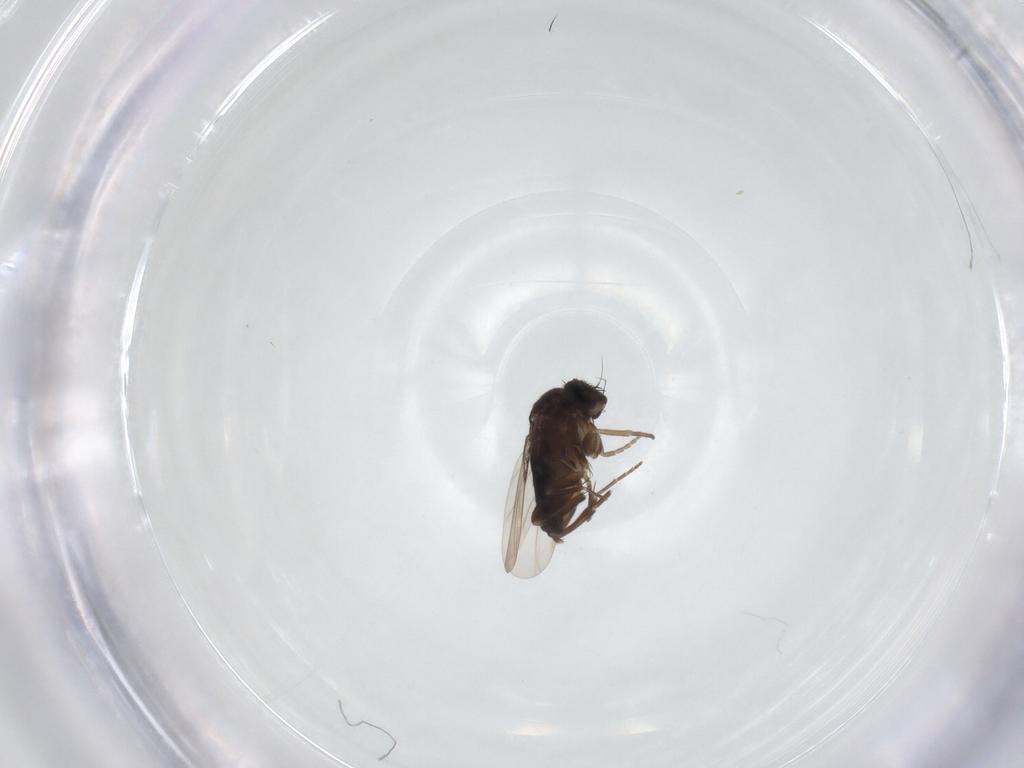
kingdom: Animalia
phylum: Arthropoda
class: Insecta
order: Diptera
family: Phoridae
